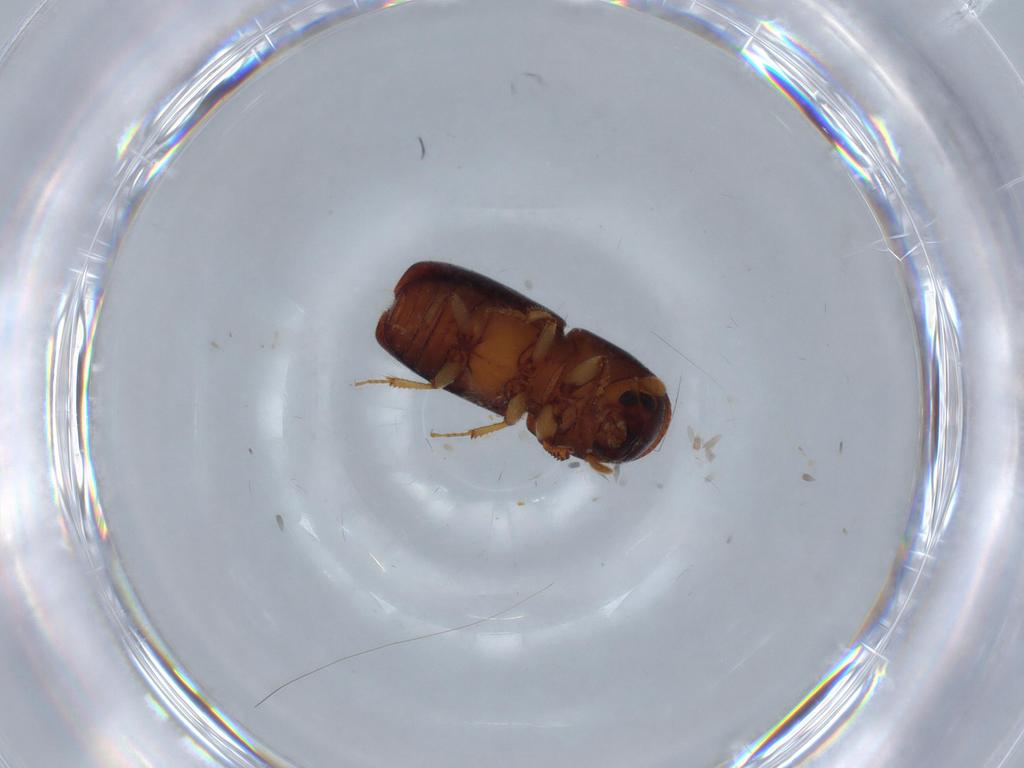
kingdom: Animalia
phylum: Arthropoda
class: Insecta
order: Coleoptera
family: Curculionidae
